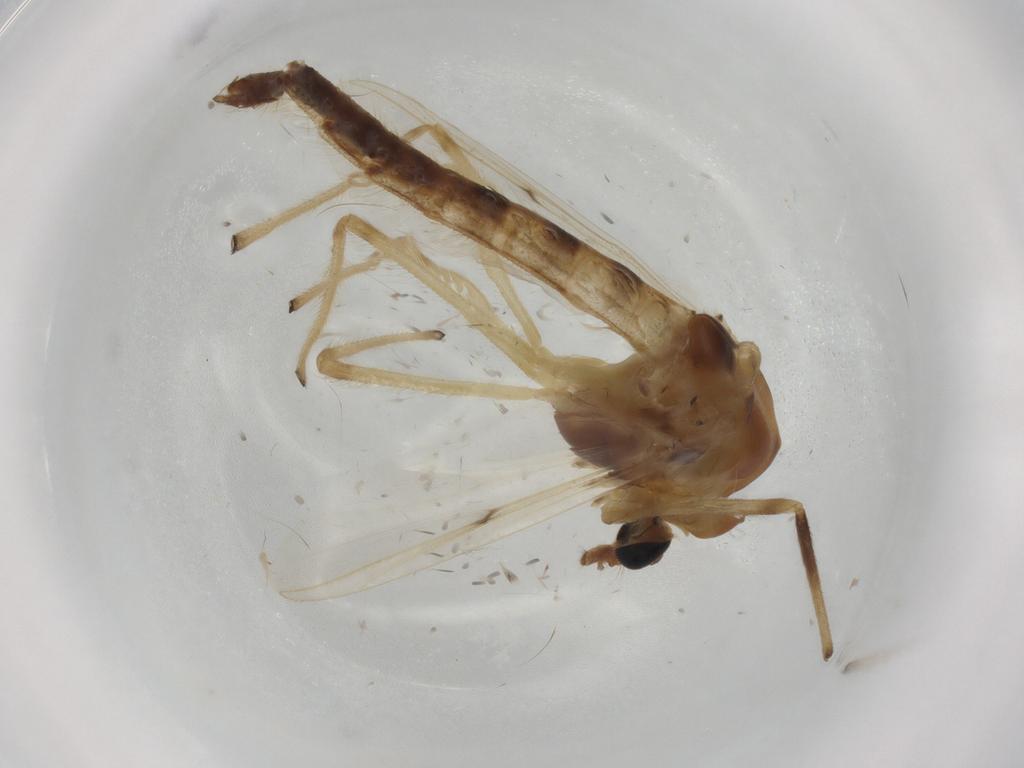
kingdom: Animalia
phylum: Arthropoda
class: Insecta
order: Diptera
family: Chironomidae
